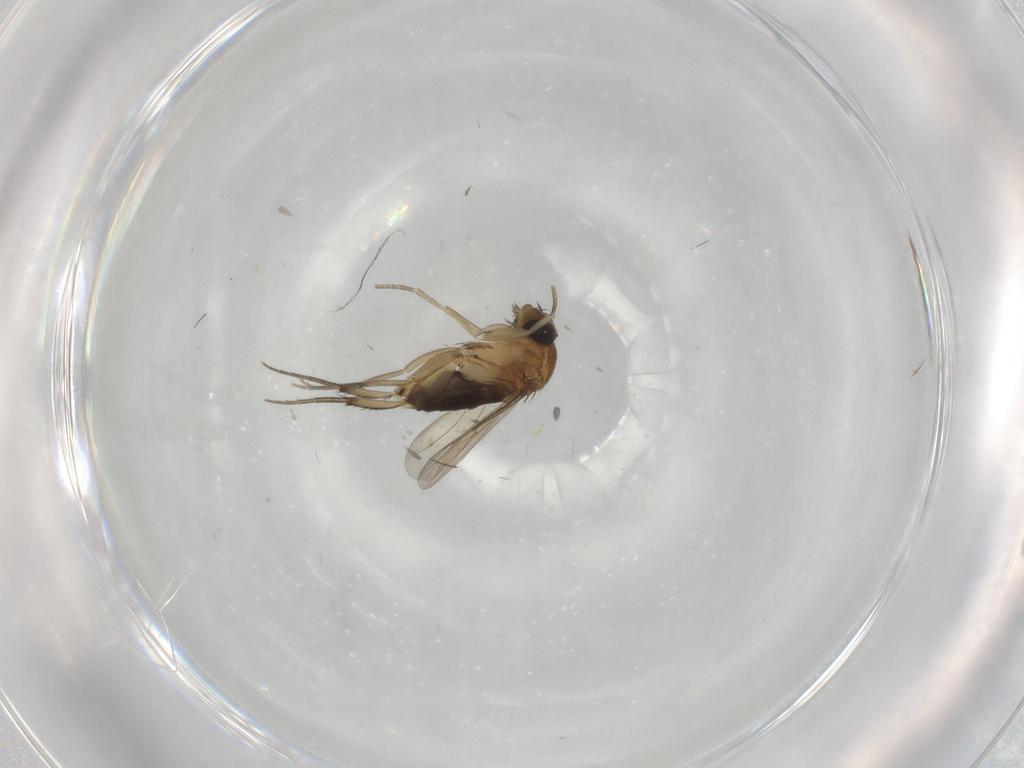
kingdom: Animalia
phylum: Arthropoda
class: Insecta
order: Diptera
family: Phoridae
